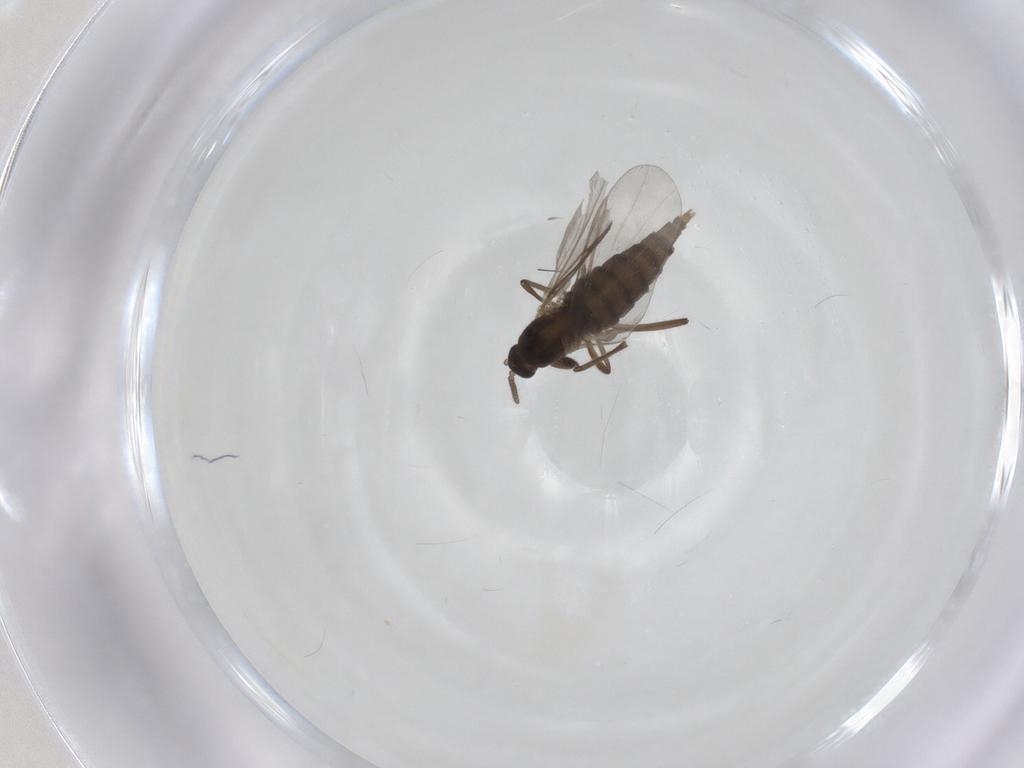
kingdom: Animalia
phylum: Arthropoda
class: Insecta
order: Diptera
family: Cecidomyiidae
